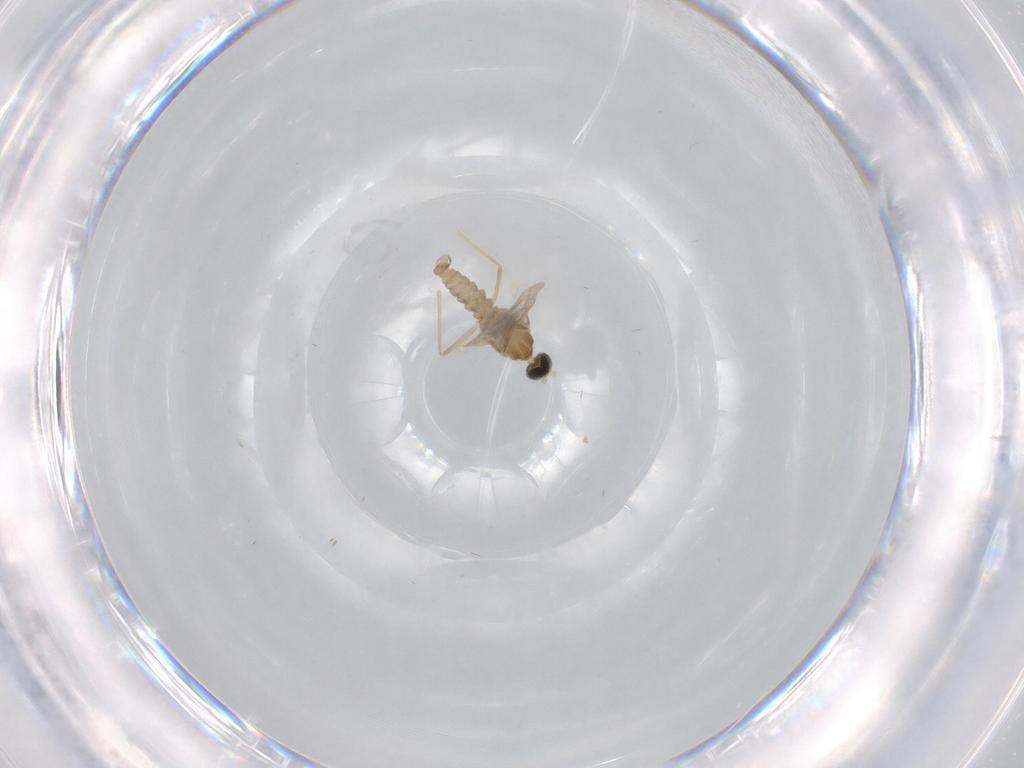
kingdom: Animalia
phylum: Arthropoda
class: Insecta
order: Diptera
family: Cecidomyiidae
